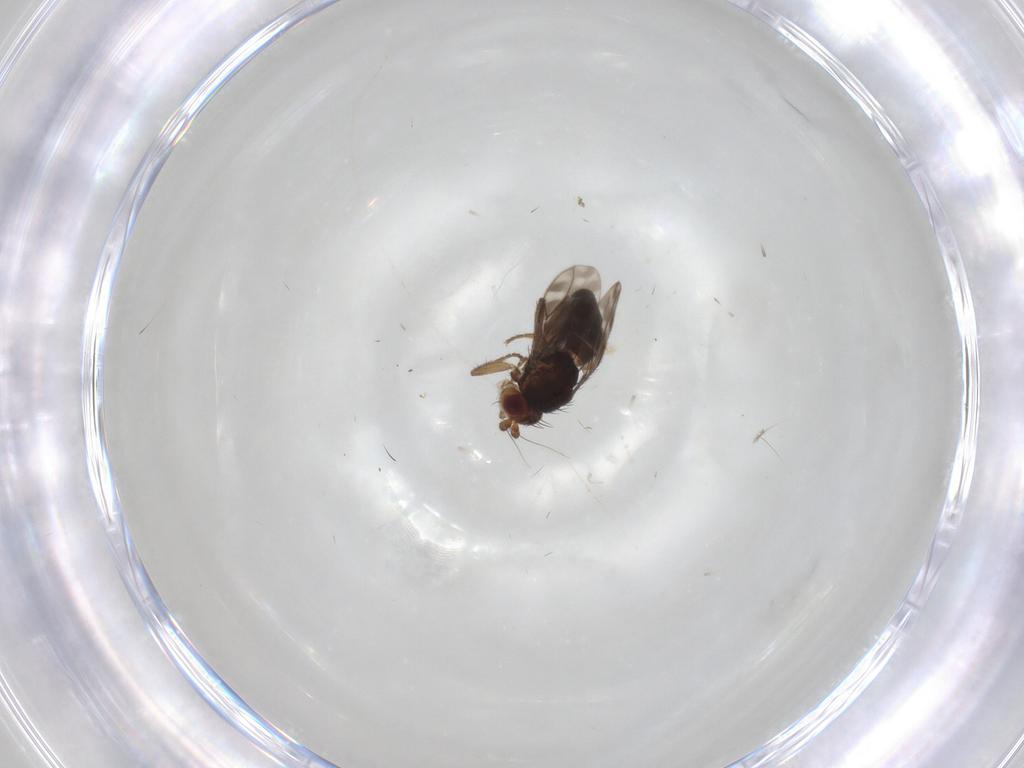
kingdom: Animalia
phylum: Arthropoda
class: Insecta
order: Diptera
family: Sphaeroceridae
